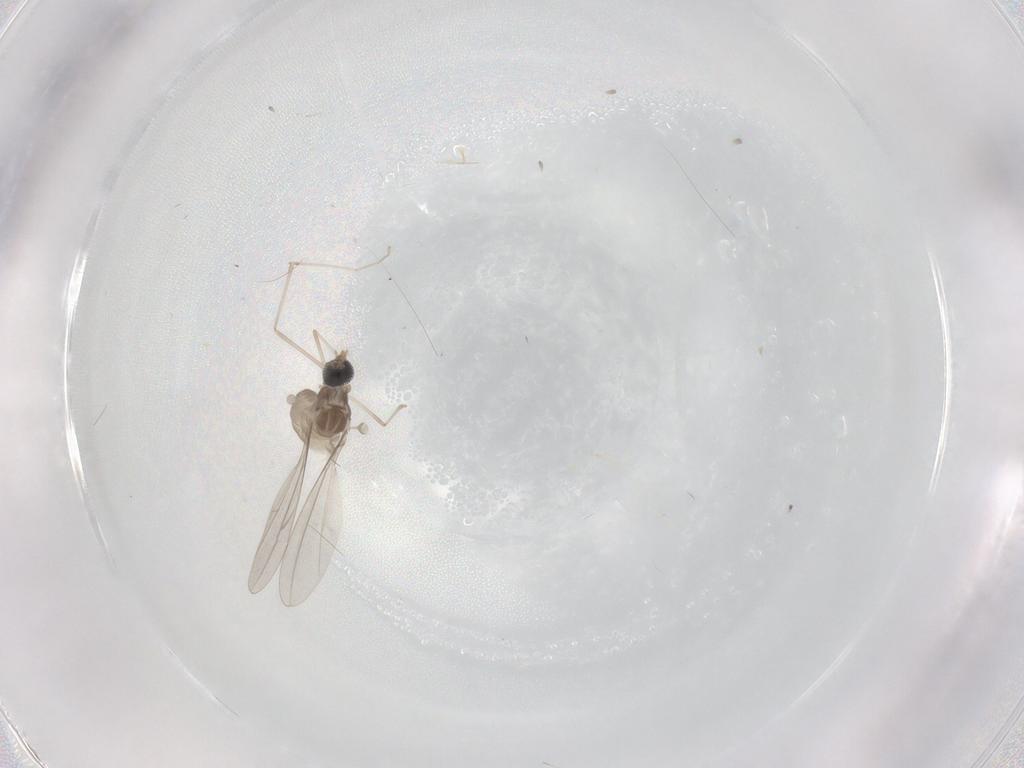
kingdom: Animalia
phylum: Arthropoda
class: Insecta
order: Diptera
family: Cecidomyiidae
